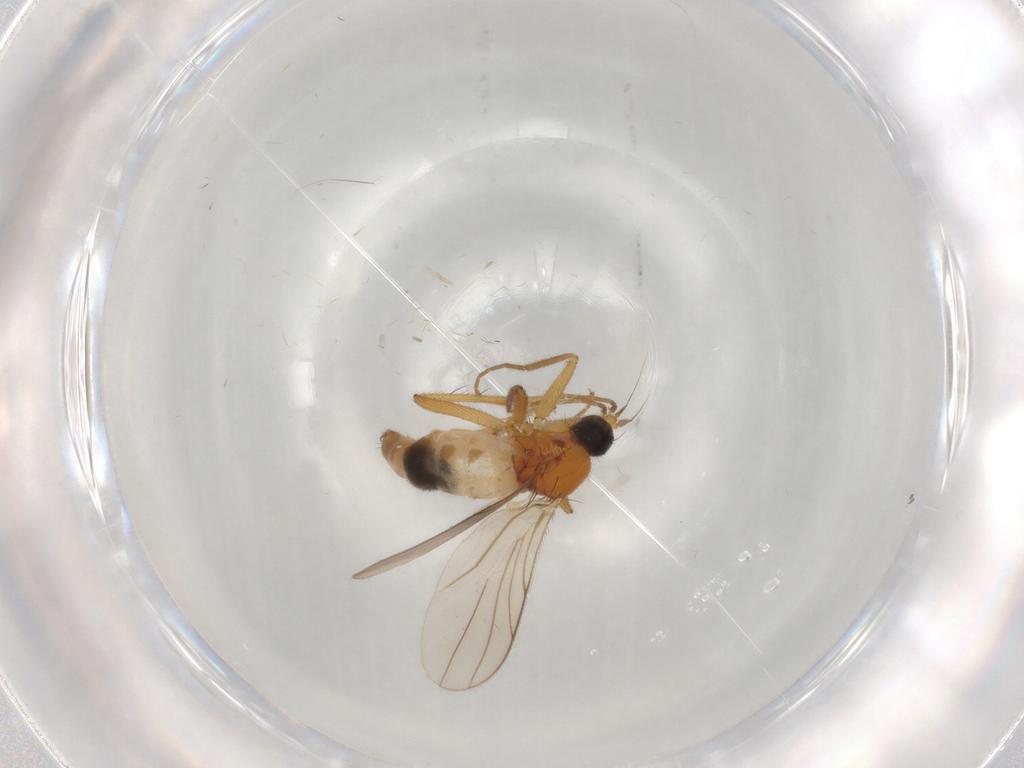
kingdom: Animalia
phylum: Arthropoda
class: Insecta
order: Diptera
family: Hybotidae
